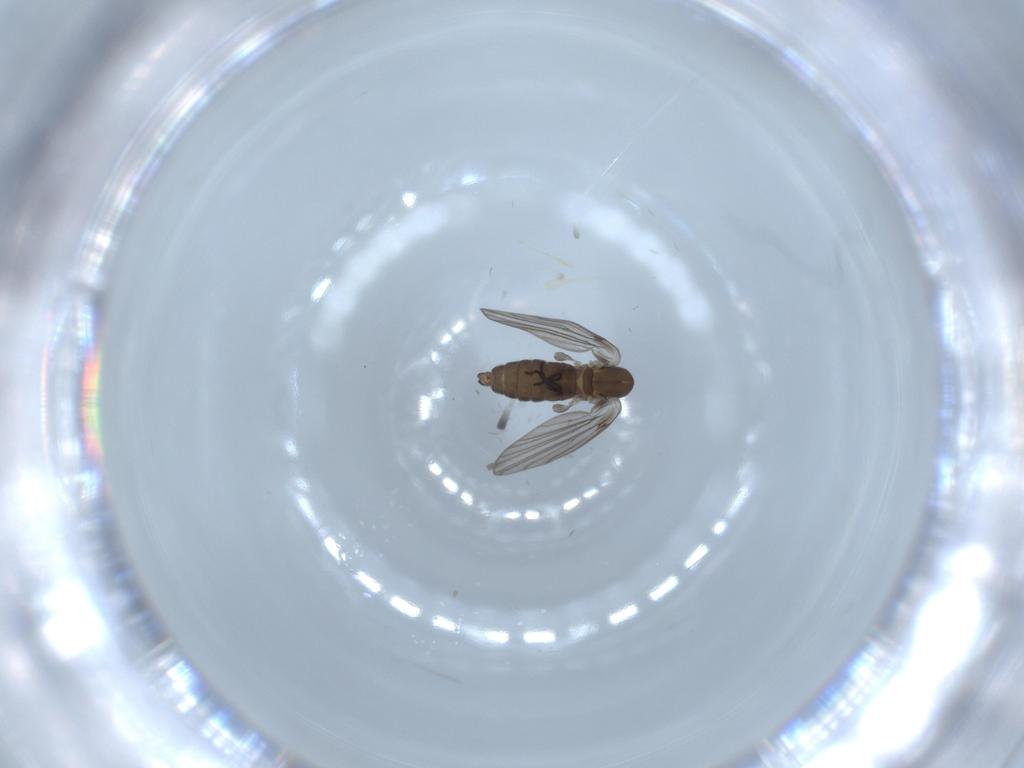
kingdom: Animalia
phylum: Arthropoda
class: Insecta
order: Diptera
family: Psychodidae
